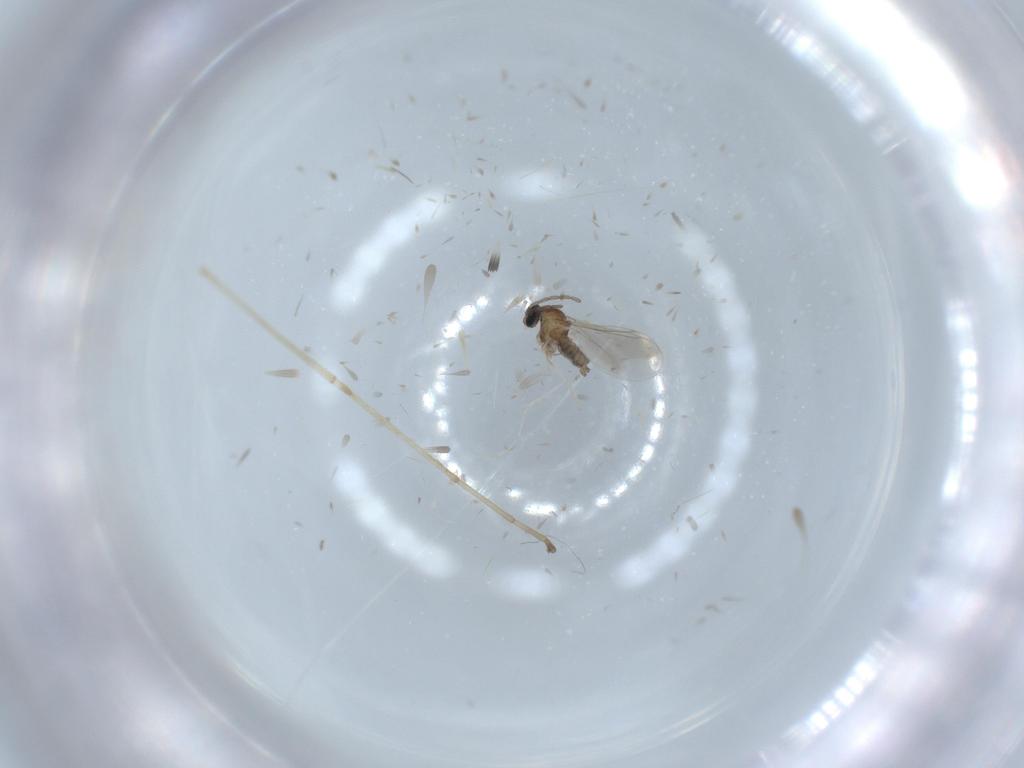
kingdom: Animalia
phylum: Arthropoda
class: Insecta
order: Diptera
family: Cecidomyiidae
